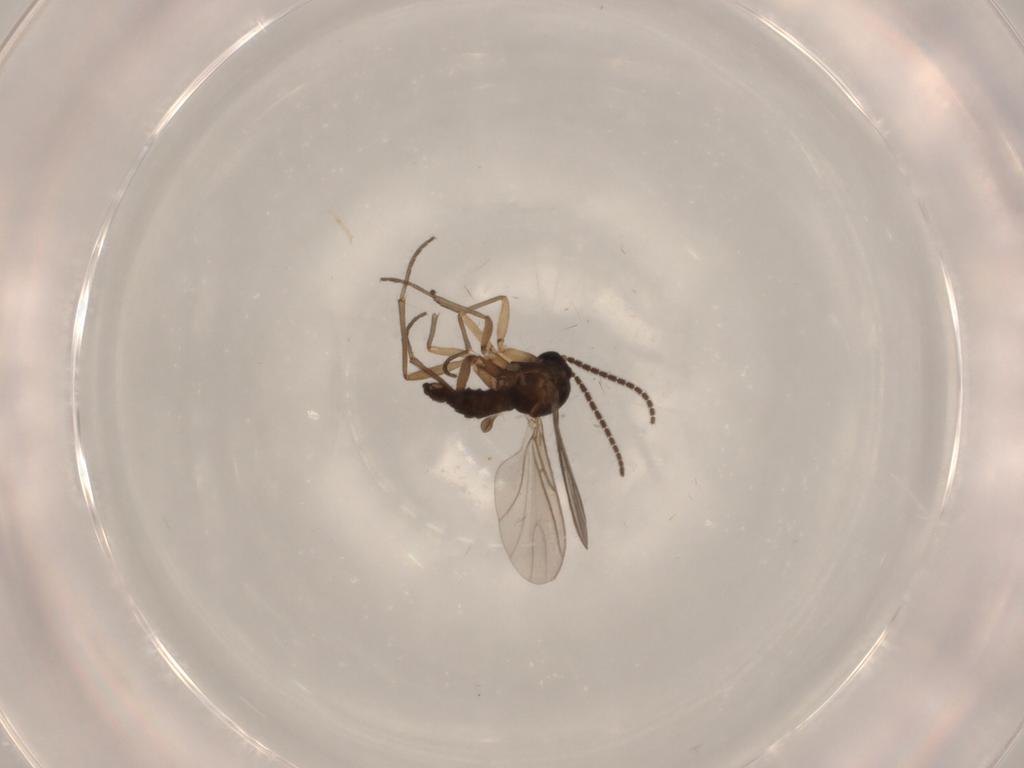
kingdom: Animalia
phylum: Arthropoda
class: Insecta
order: Diptera
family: Sciaridae
